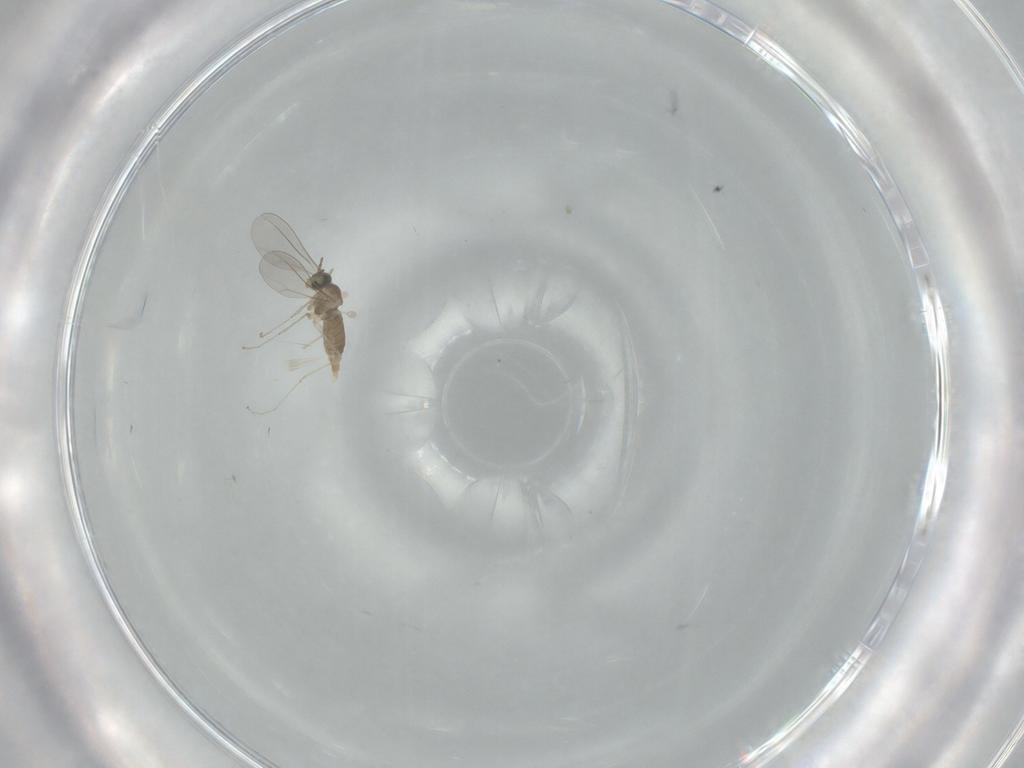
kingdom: Animalia
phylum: Arthropoda
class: Insecta
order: Diptera
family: Dolichopodidae
